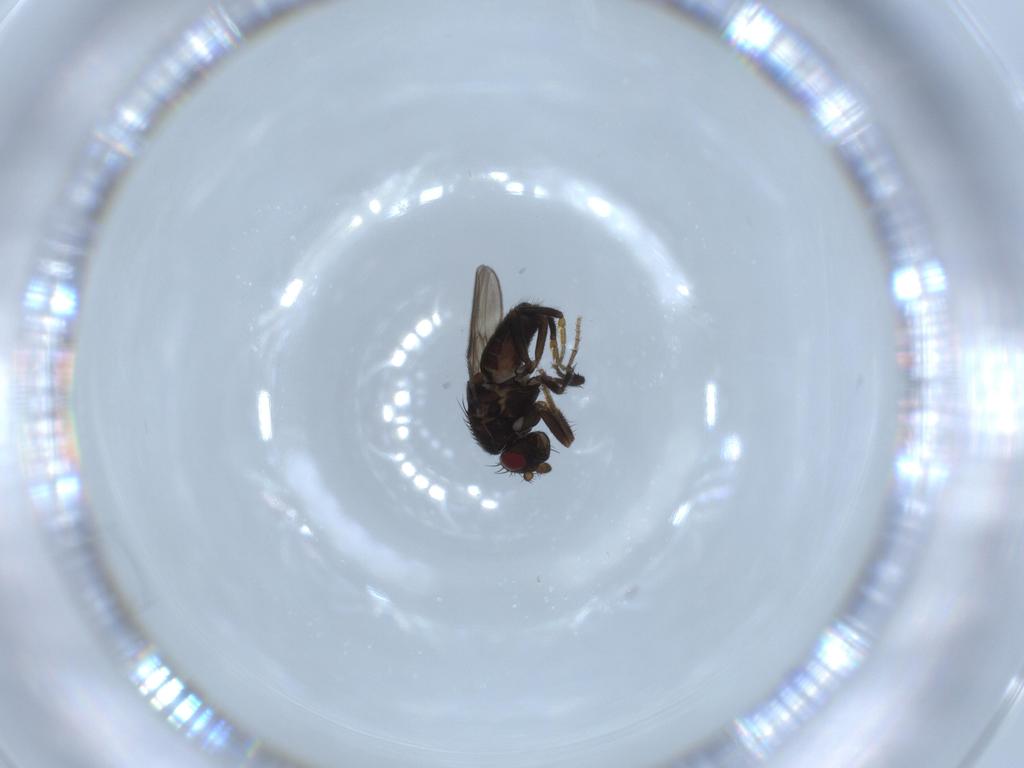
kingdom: Animalia
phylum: Arthropoda
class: Insecta
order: Diptera
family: Sphaeroceridae
